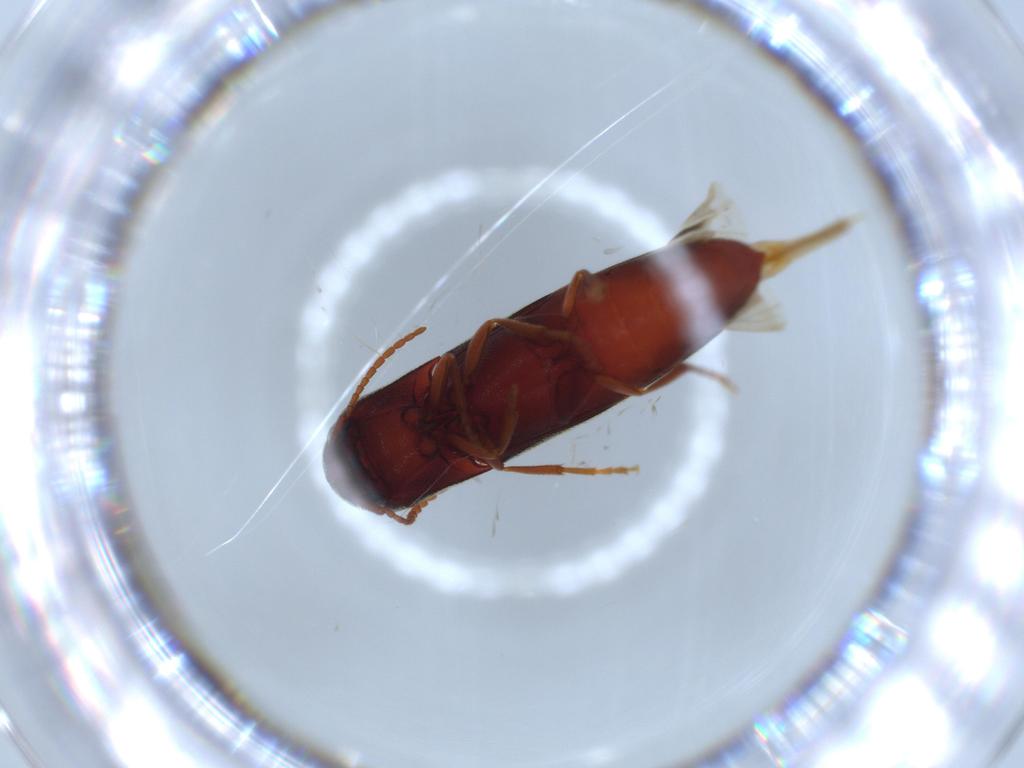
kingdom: Animalia
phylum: Arthropoda
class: Insecta
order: Coleoptera
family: Eucnemidae
